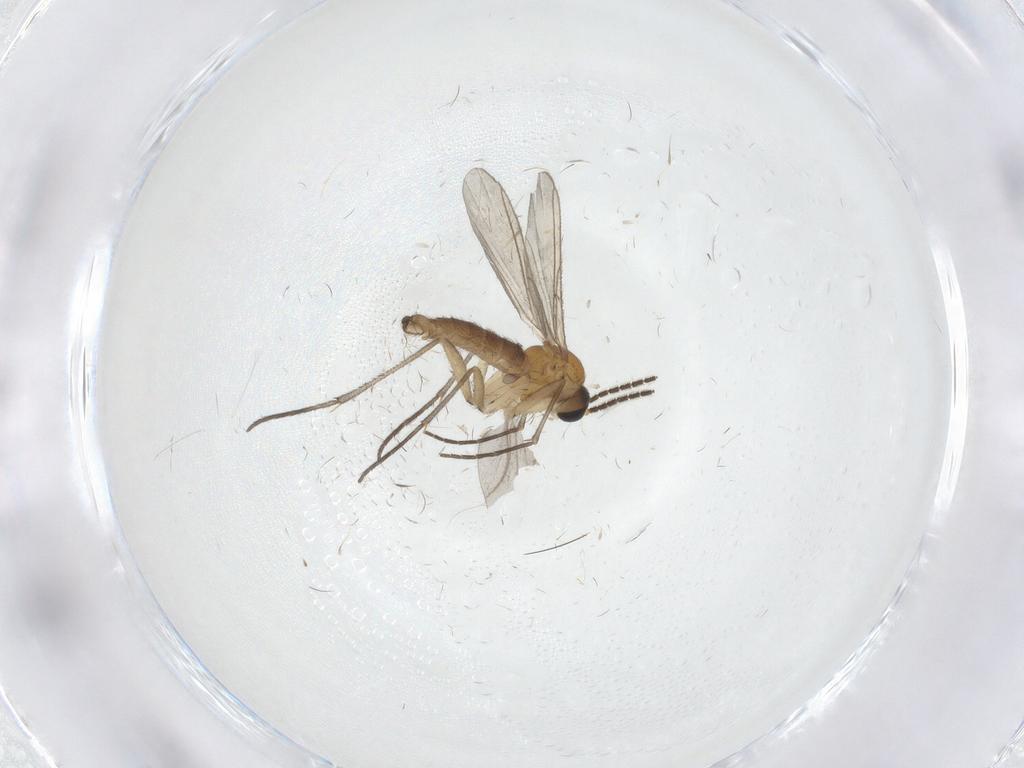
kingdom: Animalia
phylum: Arthropoda
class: Insecta
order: Diptera
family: Sciaridae
